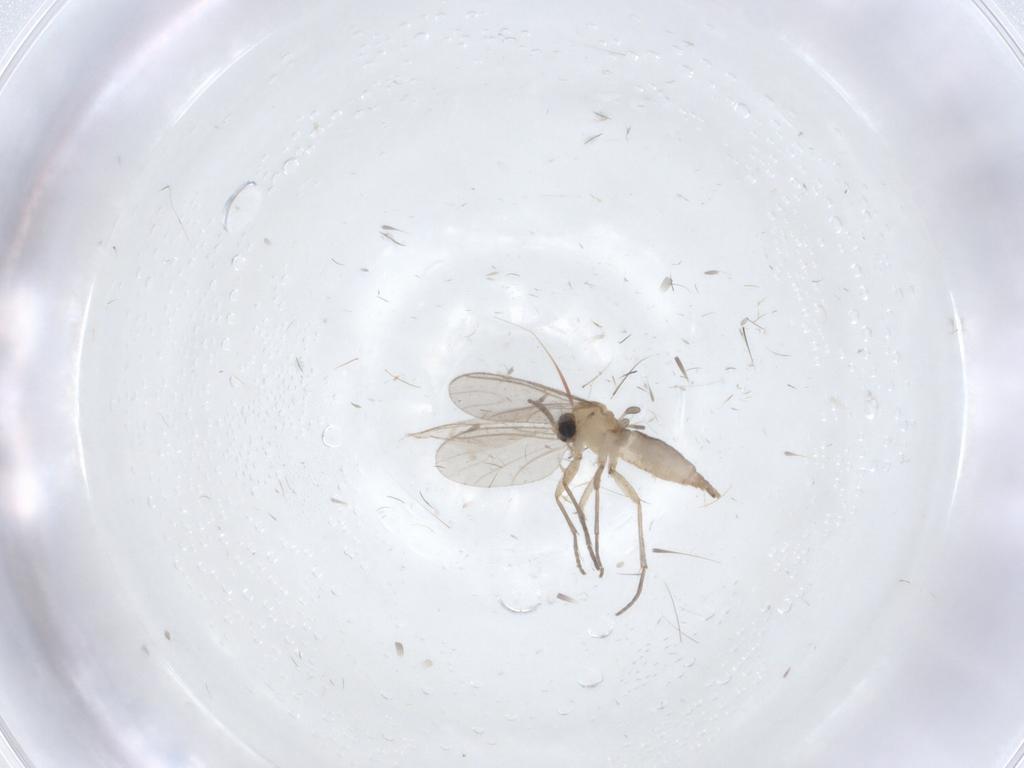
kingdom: Animalia
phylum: Arthropoda
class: Insecta
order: Diptera
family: Sciaridae
